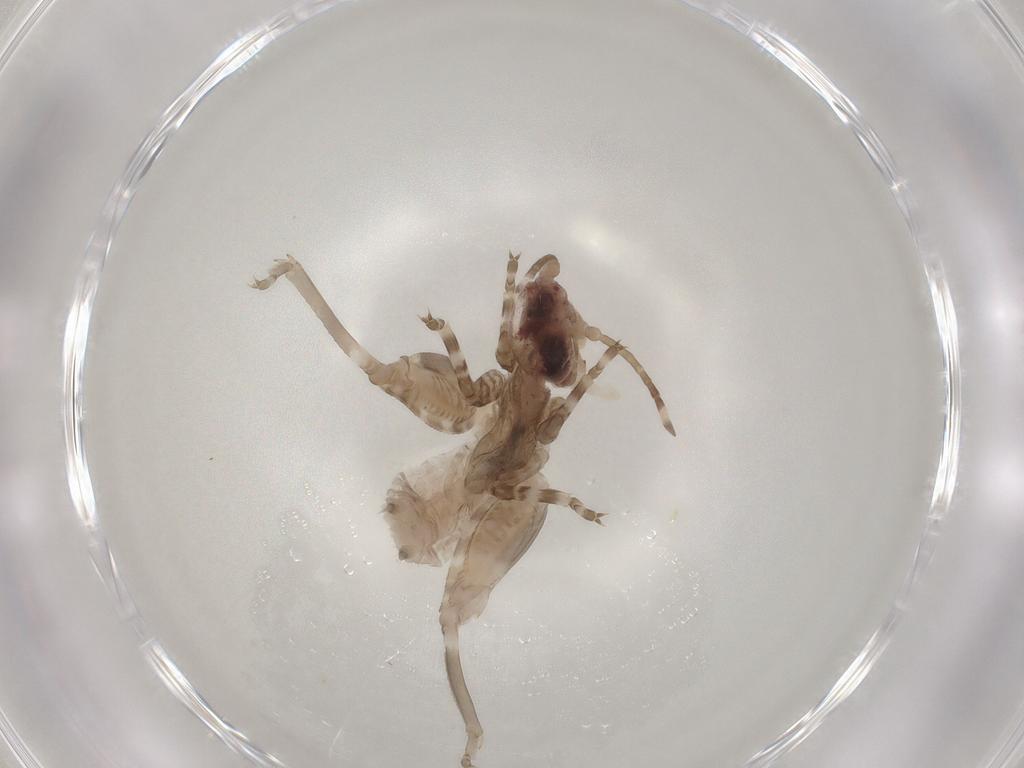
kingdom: Animalia
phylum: Arthropoda
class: Insecta
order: Orthoptera
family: Tetrigidae
